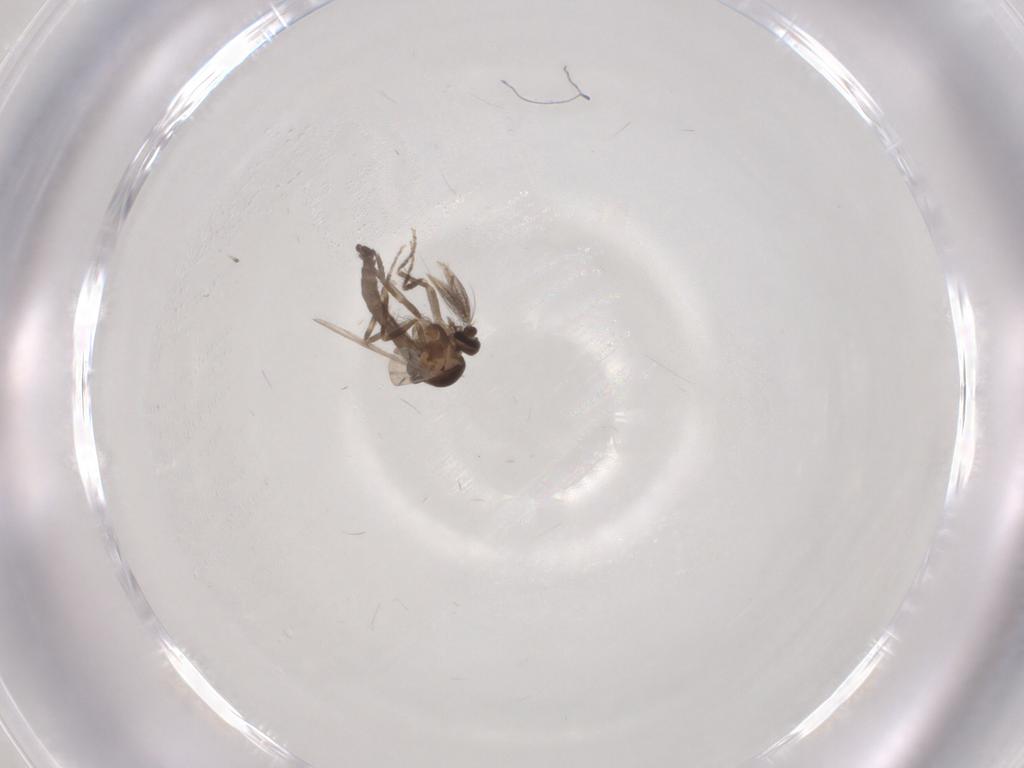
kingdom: Animalia
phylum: Arthropoda
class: Insecta
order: Diptera
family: Ceratopogonidae
